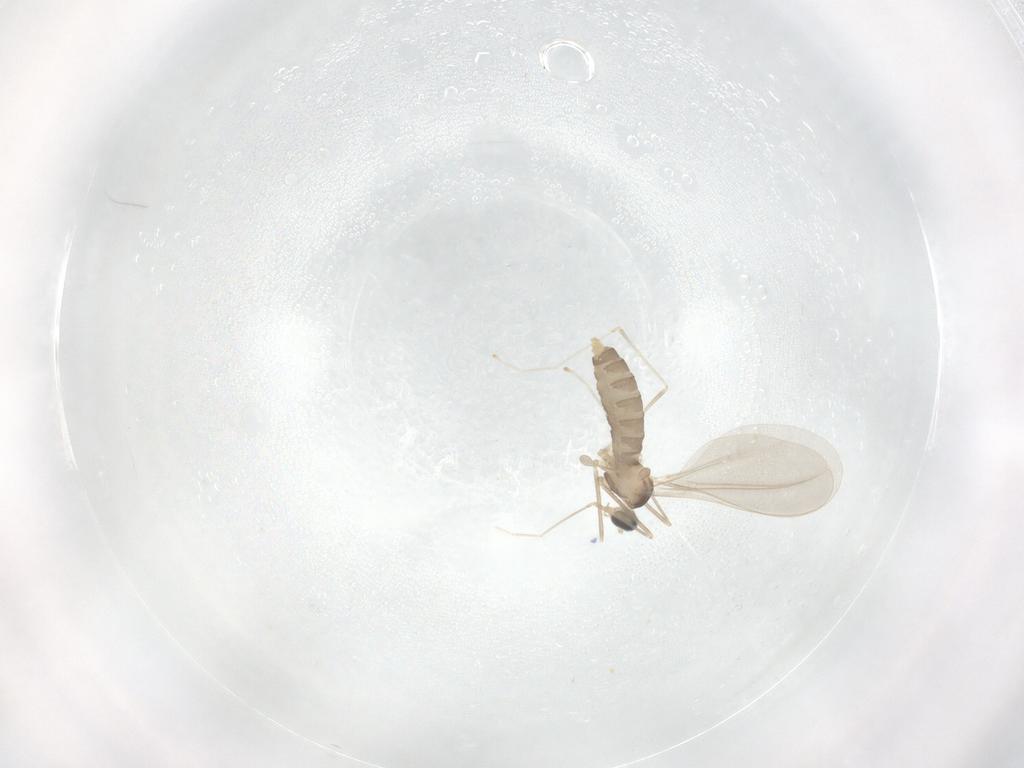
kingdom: Animalia
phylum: Arthropoda
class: Insecta
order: Diptera
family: Cecidomyiidae
